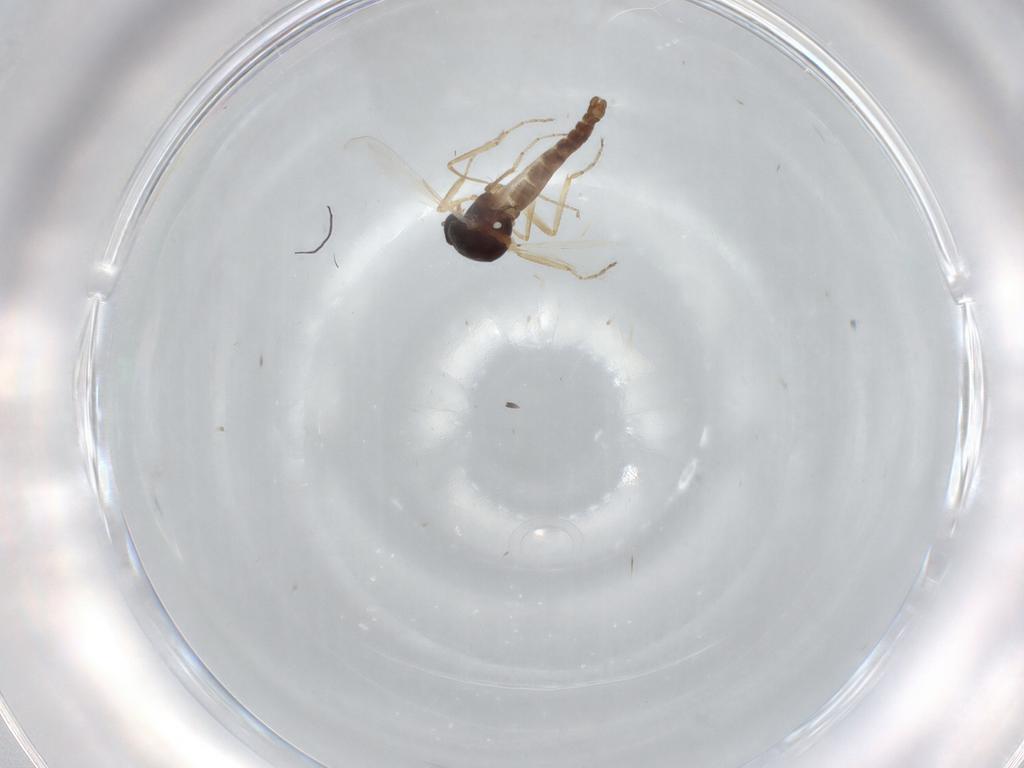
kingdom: Animalia
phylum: Arthropoda
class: Insecta
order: Diptera
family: Ceratopogonidae
